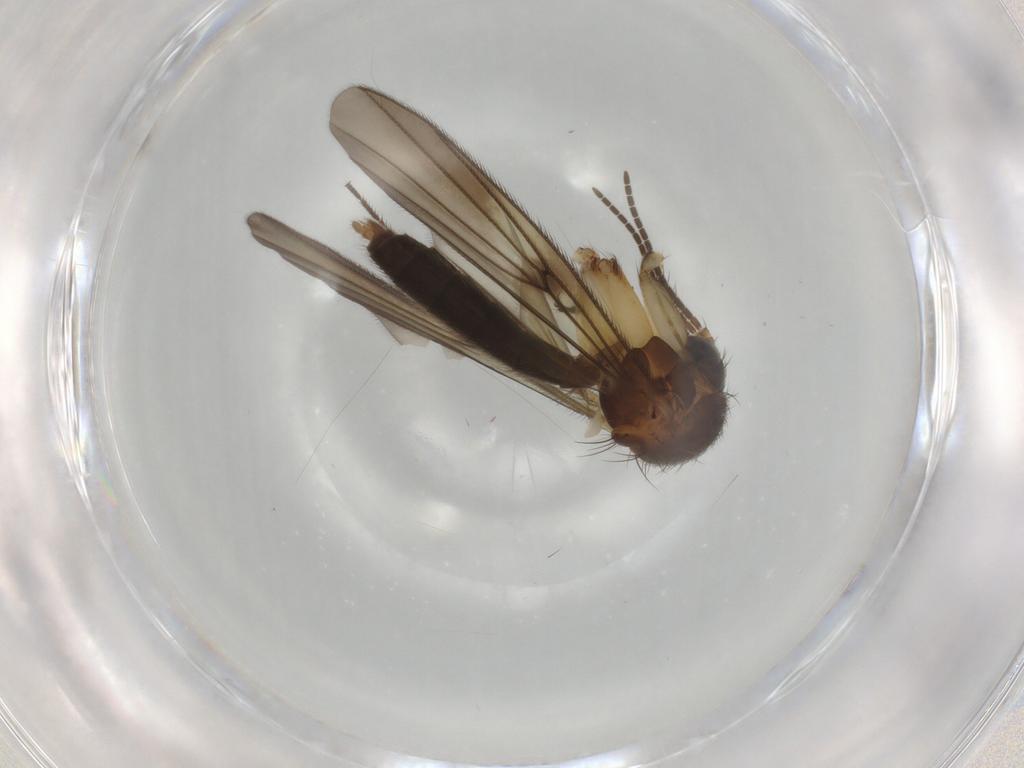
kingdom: Animalia
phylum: Arthropoda
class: Insecta
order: Diptera
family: Mycetophilidae
